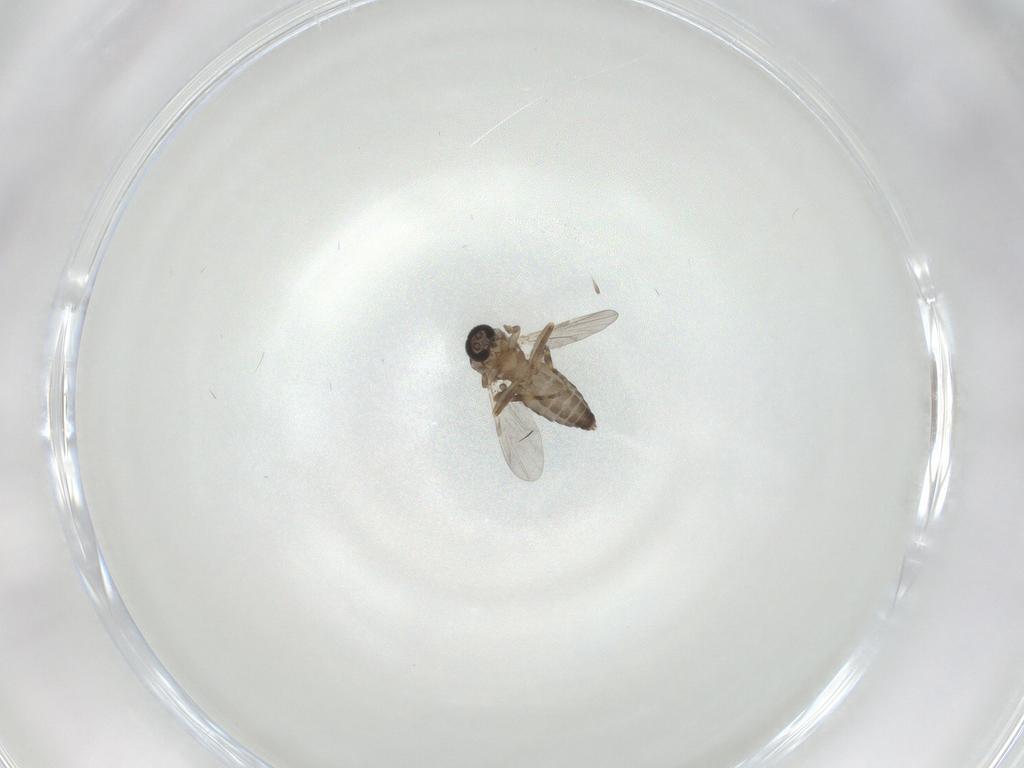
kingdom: Animalia
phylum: Arthropoda
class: Insecta
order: Diptera
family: Ceratopogonidae
